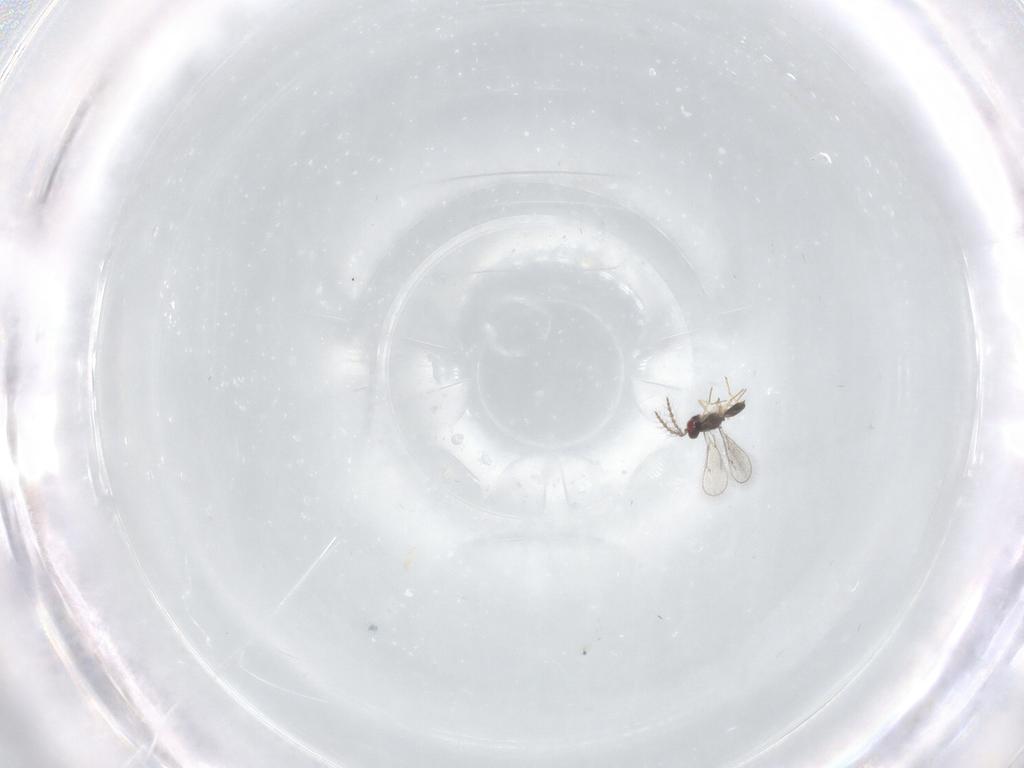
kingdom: Animalia
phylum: Arthropoda
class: Insecta
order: Hymenoptera
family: Eulophidae
